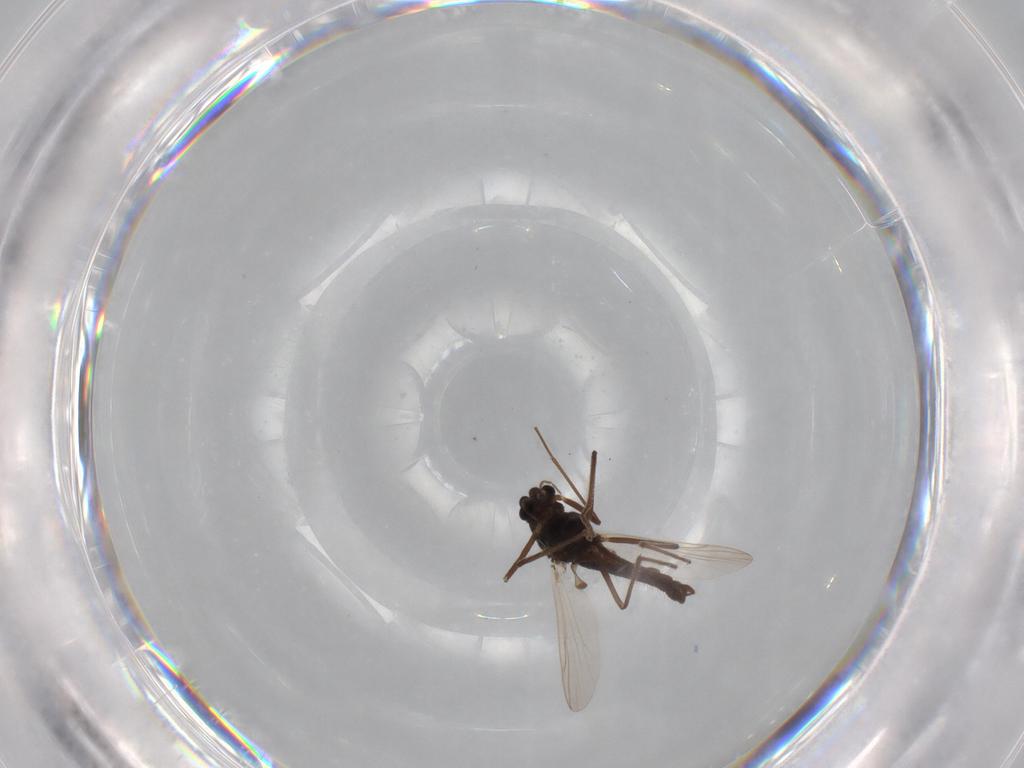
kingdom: Animalia
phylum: Arthropoda
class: Insecta
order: Diptera
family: Chironomidae
